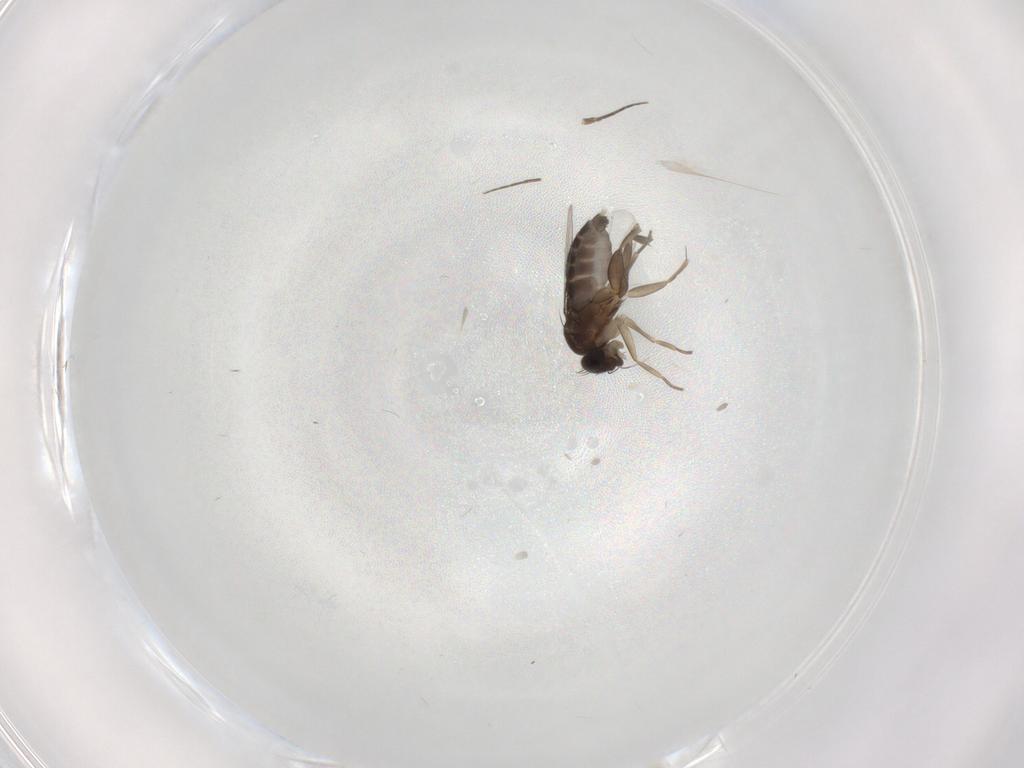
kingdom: Animalia
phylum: Arthropoda
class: Insecta
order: Diptera
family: Phoridae
